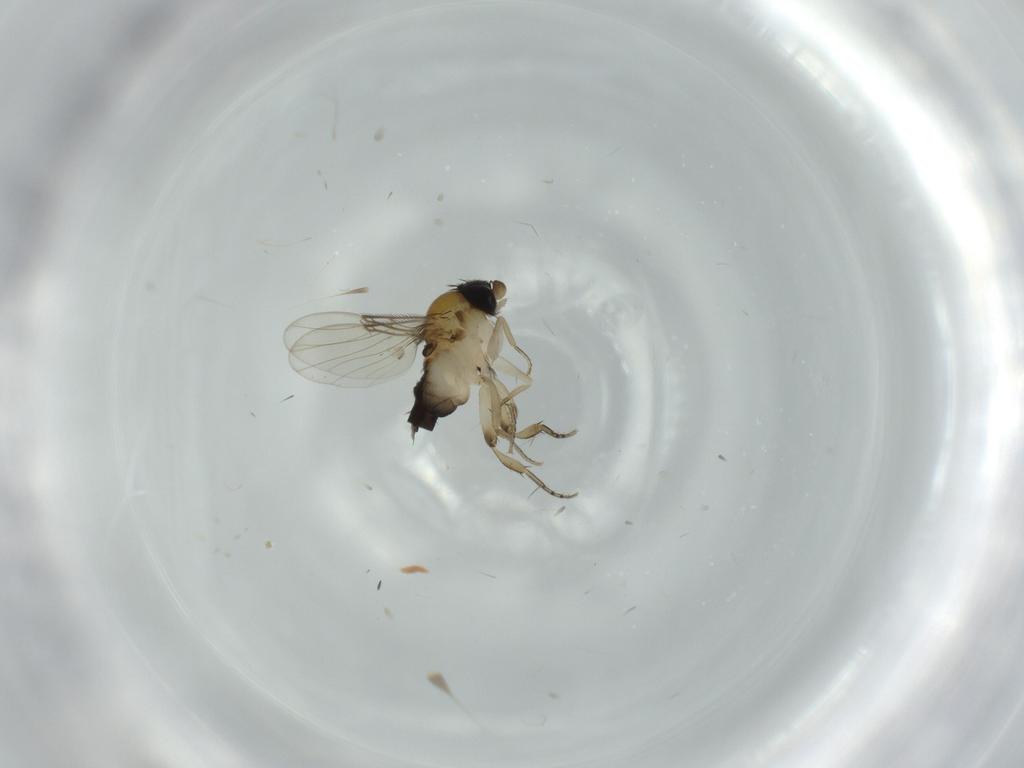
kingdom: Animalia
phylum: Arthropoda
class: Insecta
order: Diptera
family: Phoridae
